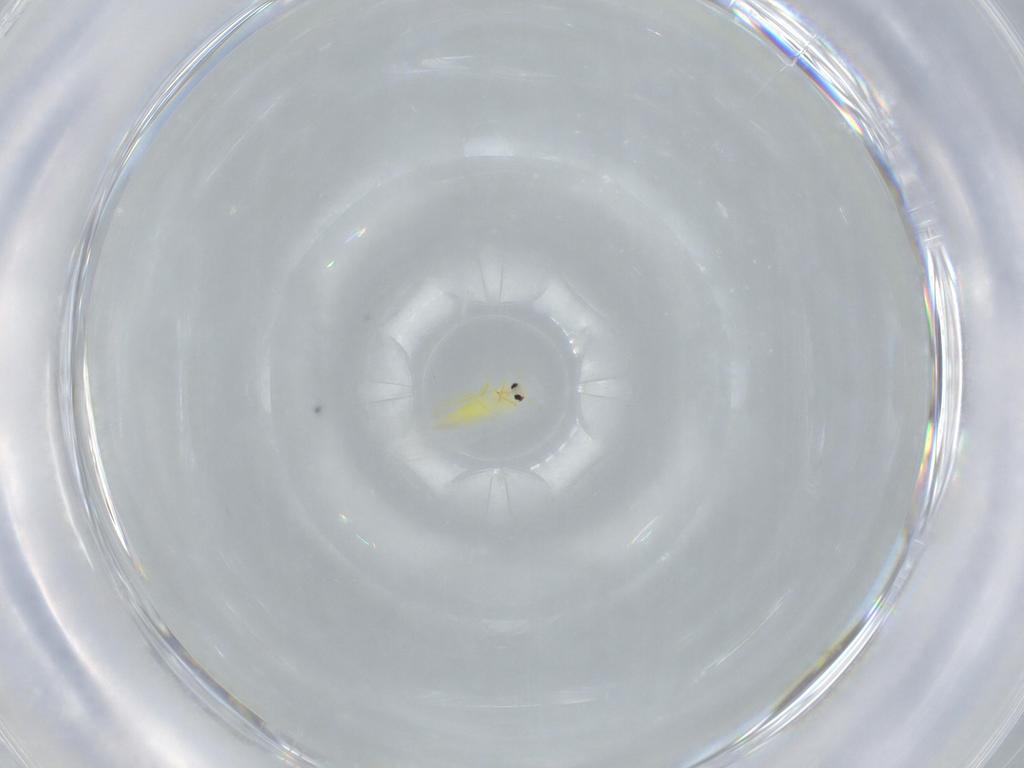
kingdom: Animalia
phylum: Arthropoda
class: Insecta
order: Hemiptera
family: Aleyrodidae
